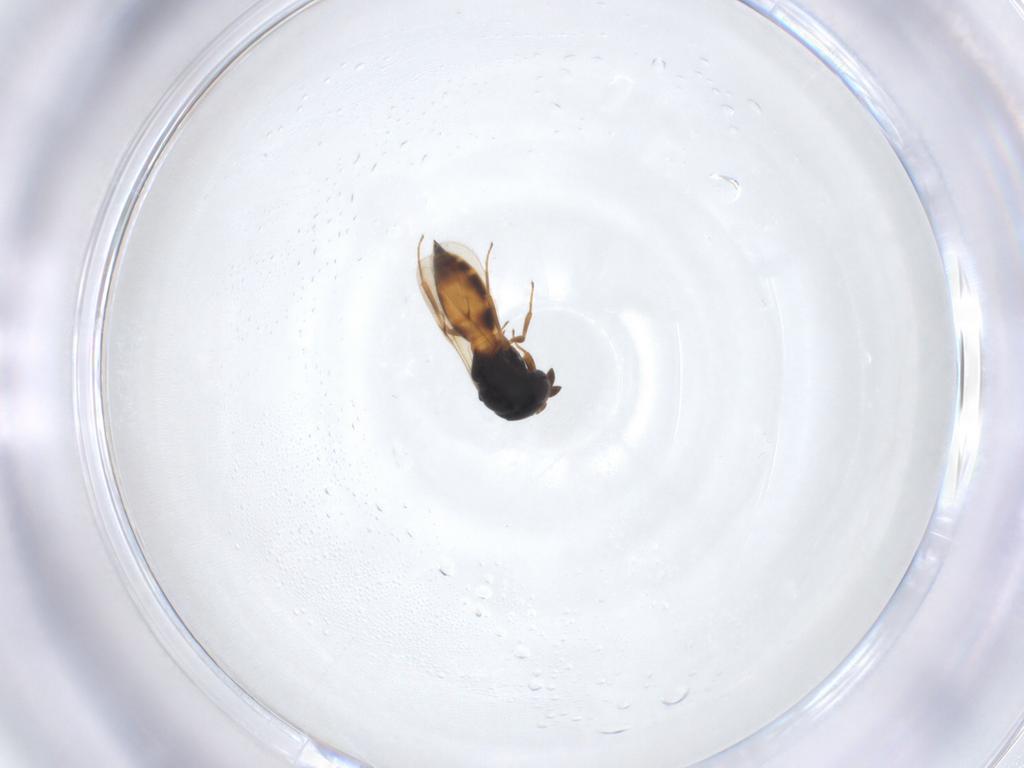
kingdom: Animalia
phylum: Arthropoda
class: Insecta
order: Hymenoptera
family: Scelionidae
